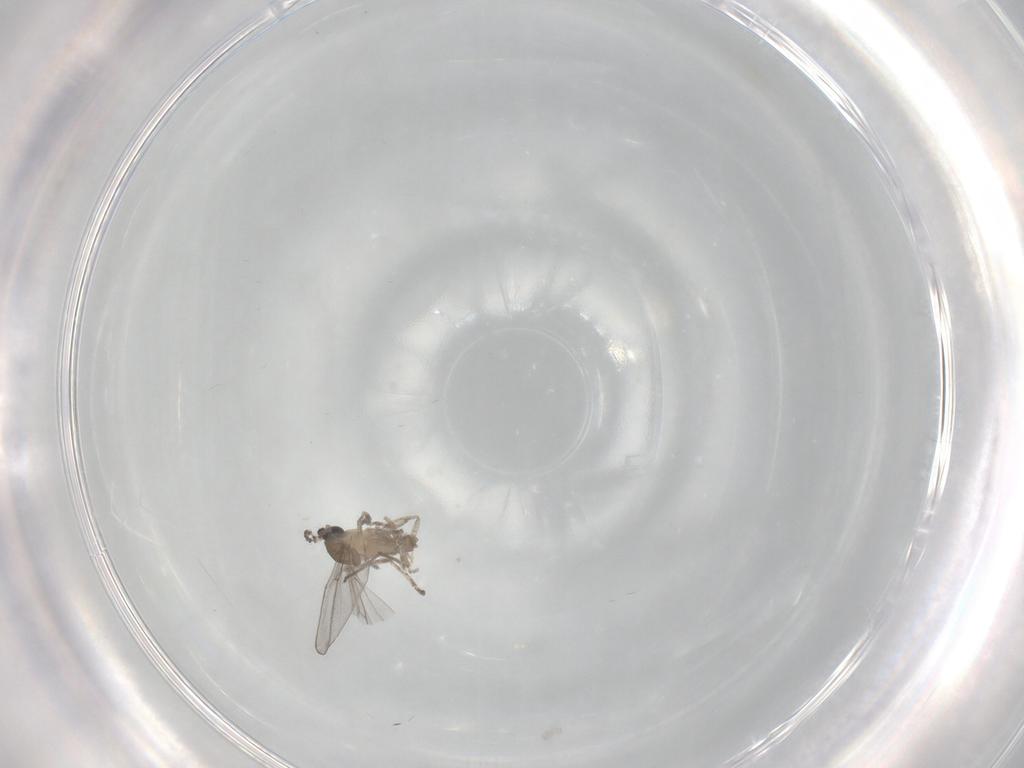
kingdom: Animalia
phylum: Arthropoda
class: Insecta
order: Diptera
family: Cecidomyiidae
